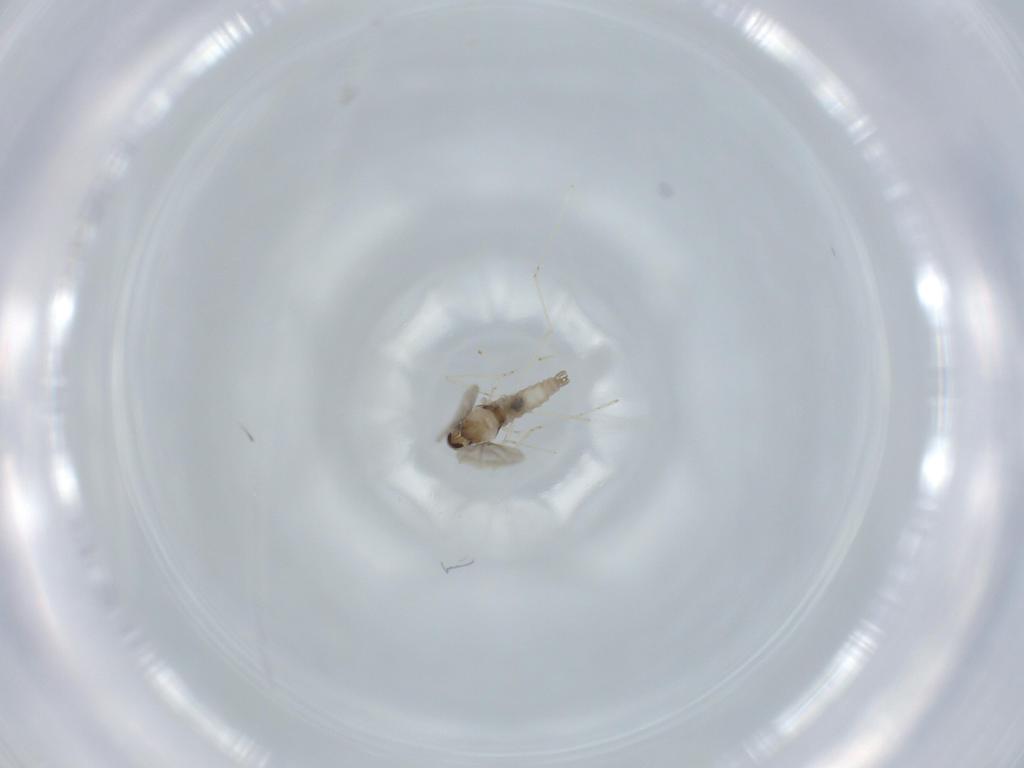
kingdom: Animalia
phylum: Arthropoda
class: Insecta
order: Diptera
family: Cecidomyiidae
